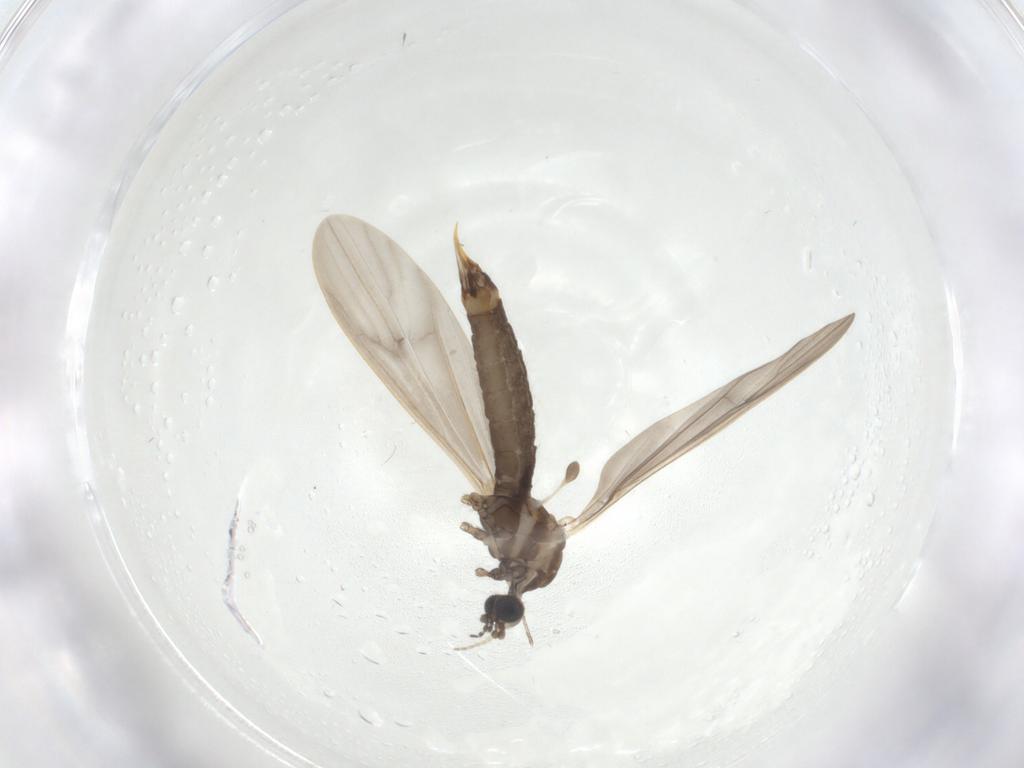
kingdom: Animalia
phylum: Arthropoda
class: Insecta
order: Diptera
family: Limoniidae
